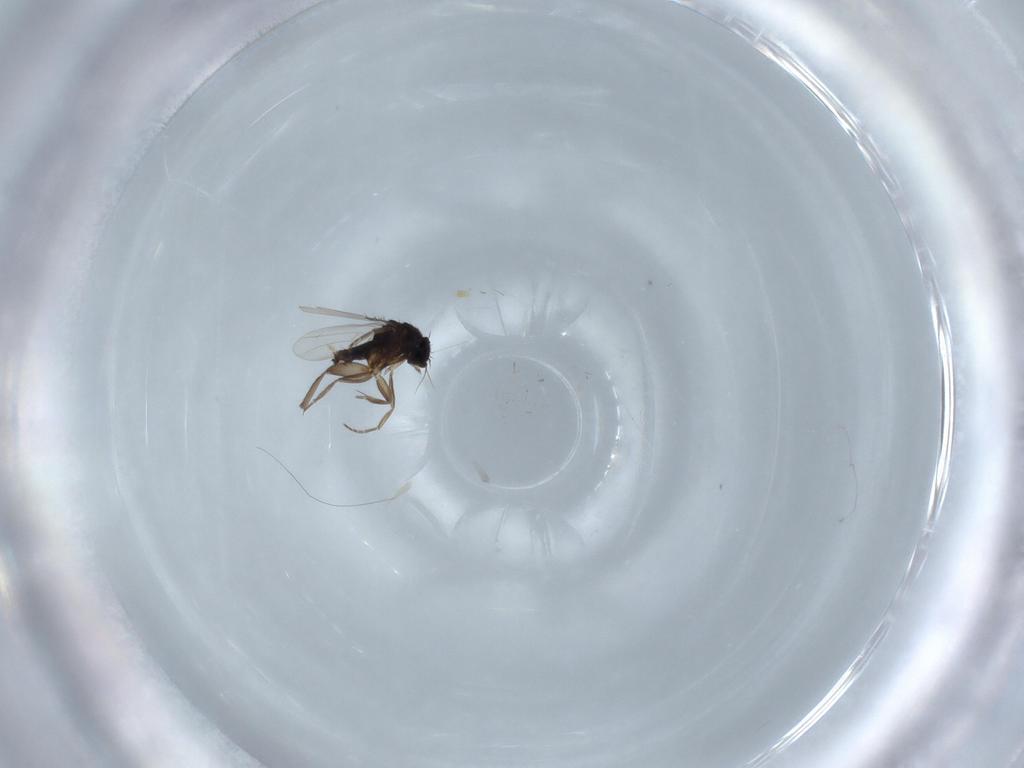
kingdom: Animalia
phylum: Arthropoda
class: Insecta
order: Diptera
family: Tipulidae
